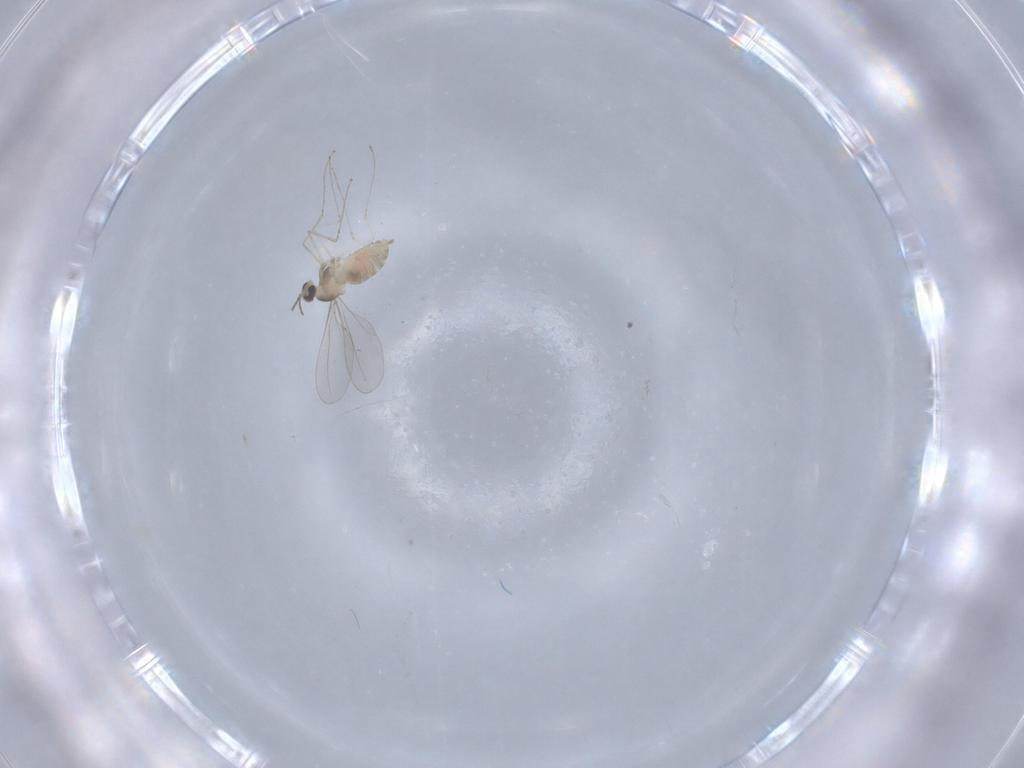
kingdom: Animalia
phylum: Arthropoda
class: Insecta
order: Diptera
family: Cecidomyiidae
